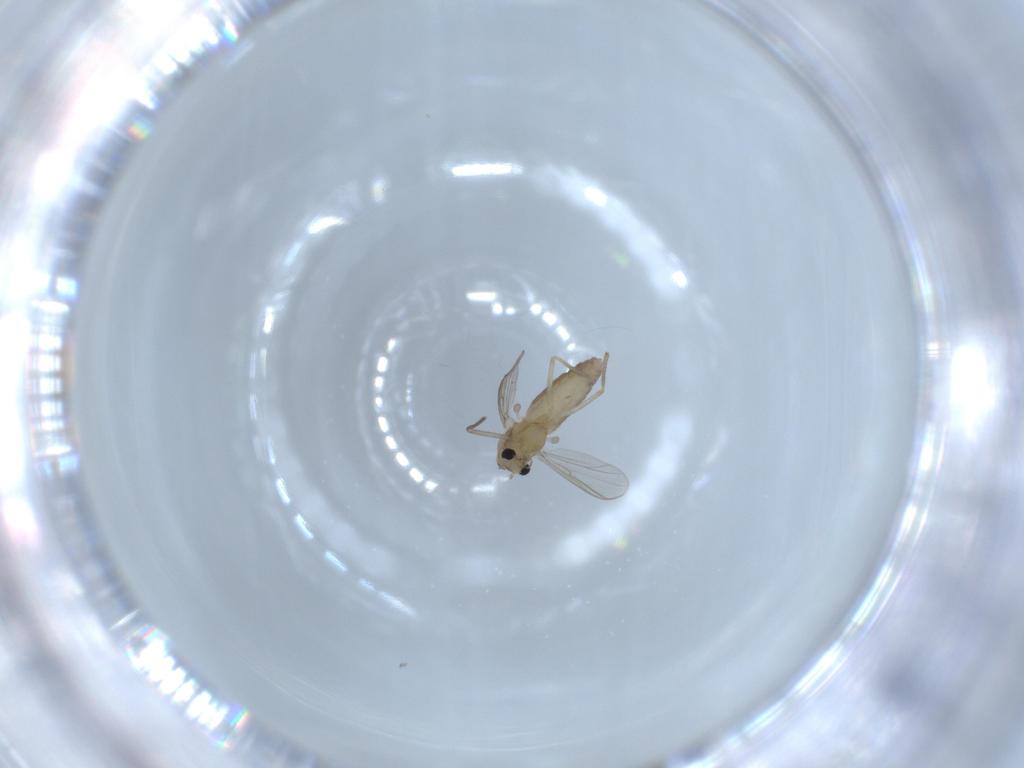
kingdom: Animalia
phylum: Arthropoda
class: Insecta
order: Diptera
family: Chironomidae
